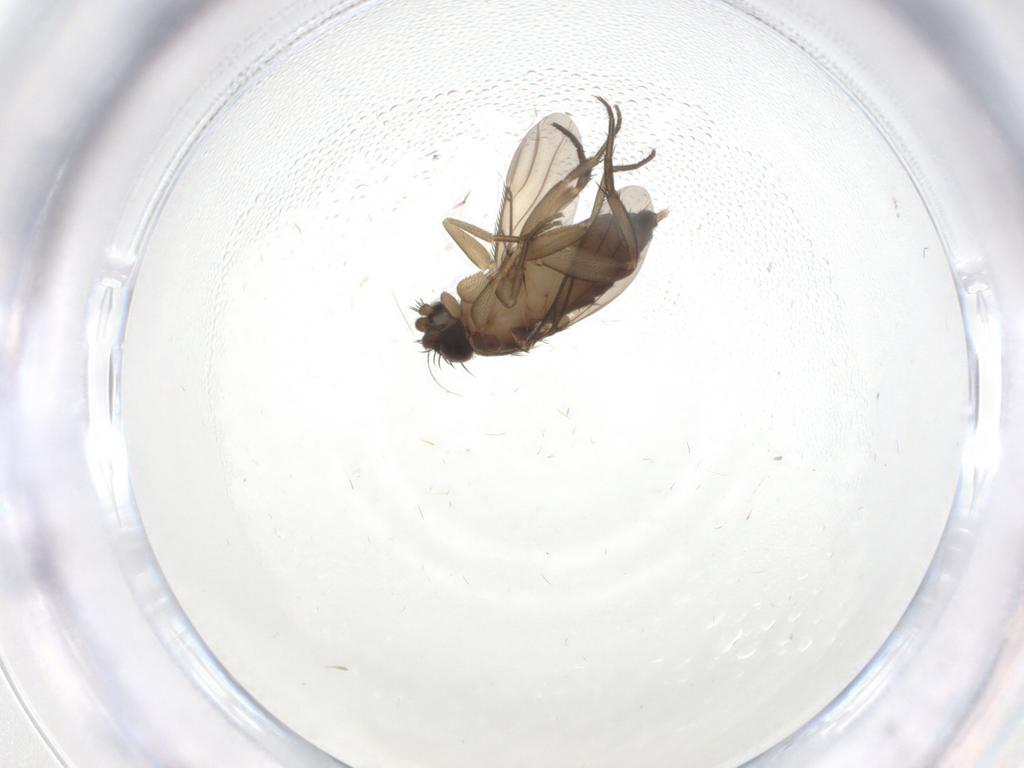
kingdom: Animalia
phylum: Arthropoda
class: Insecta
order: Diptera
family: Phoridae
